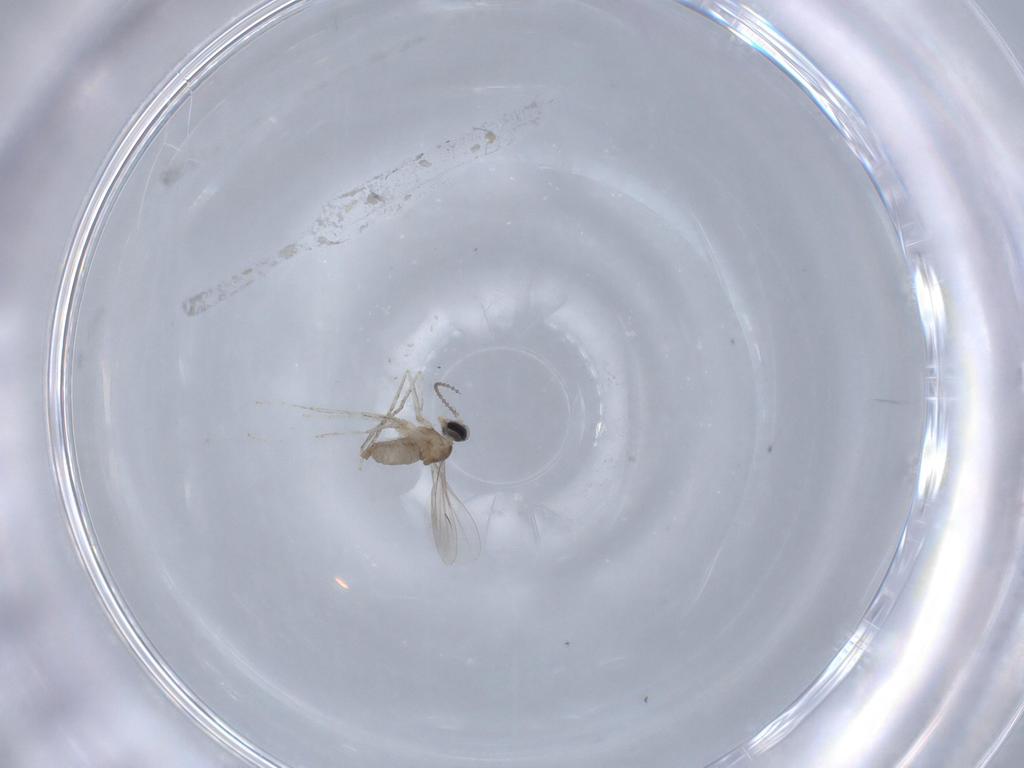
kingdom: Animalia
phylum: Arthropoda
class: Insecta
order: Diptera
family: Cecidomyiidae
